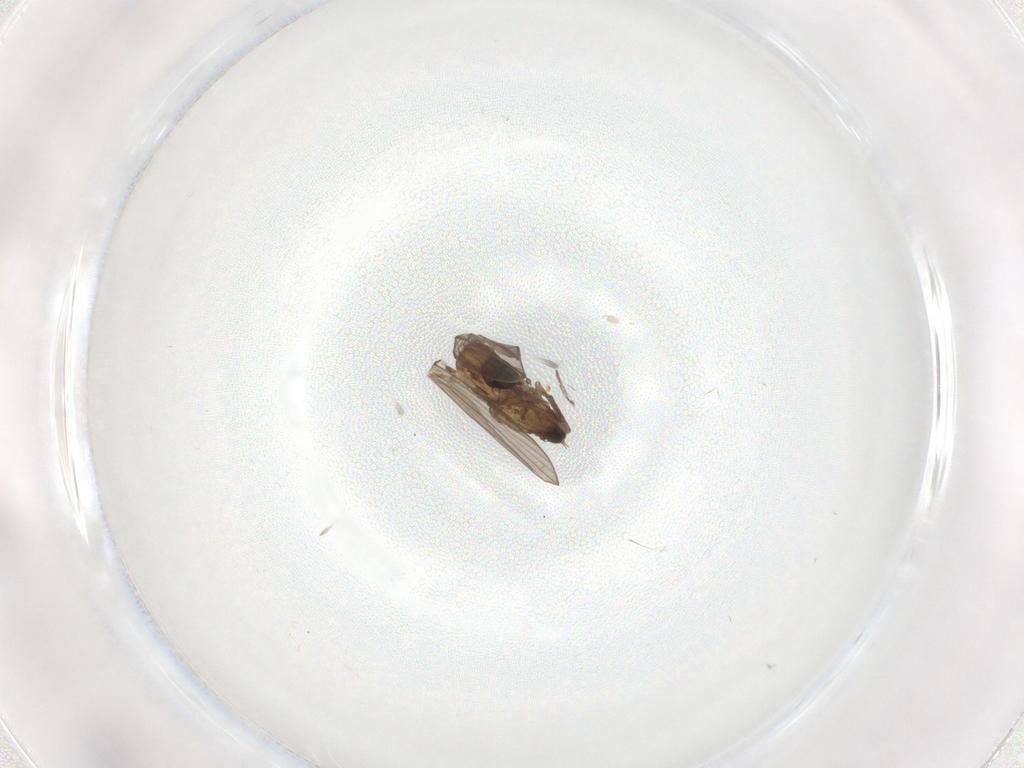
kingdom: Animalia
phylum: Arthropoda
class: Insecta
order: Diptera
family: Psychodidae
